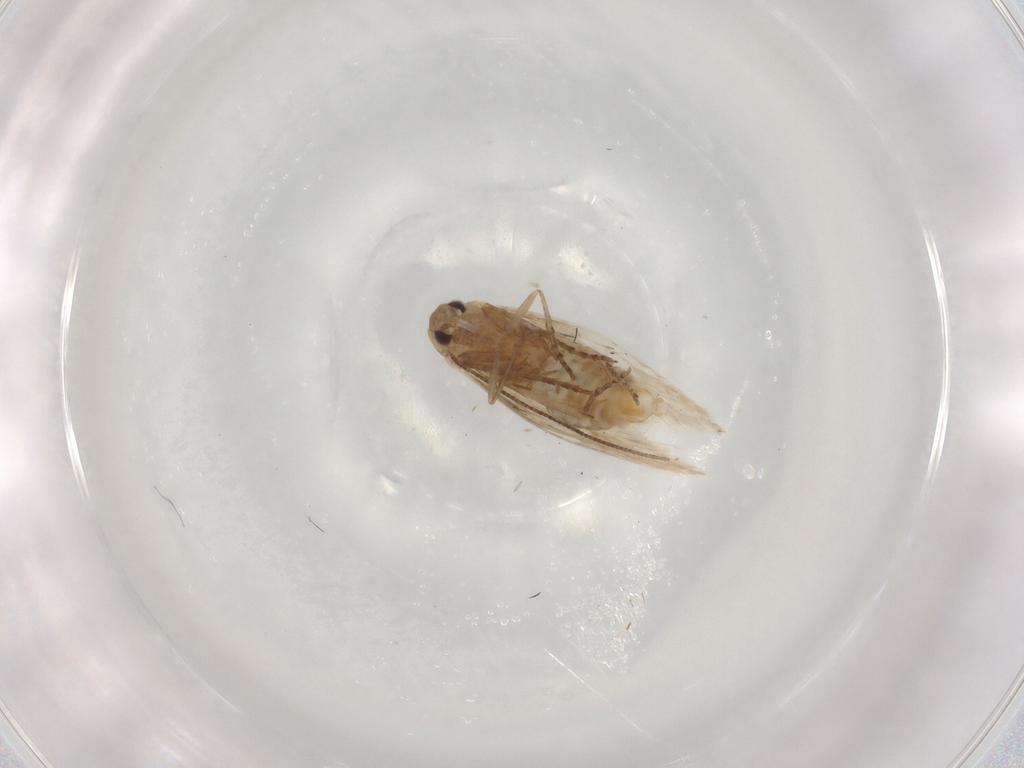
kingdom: Animalia
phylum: Arthropoda
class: Insecta
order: Lepidoptera
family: Bucculatricidae
